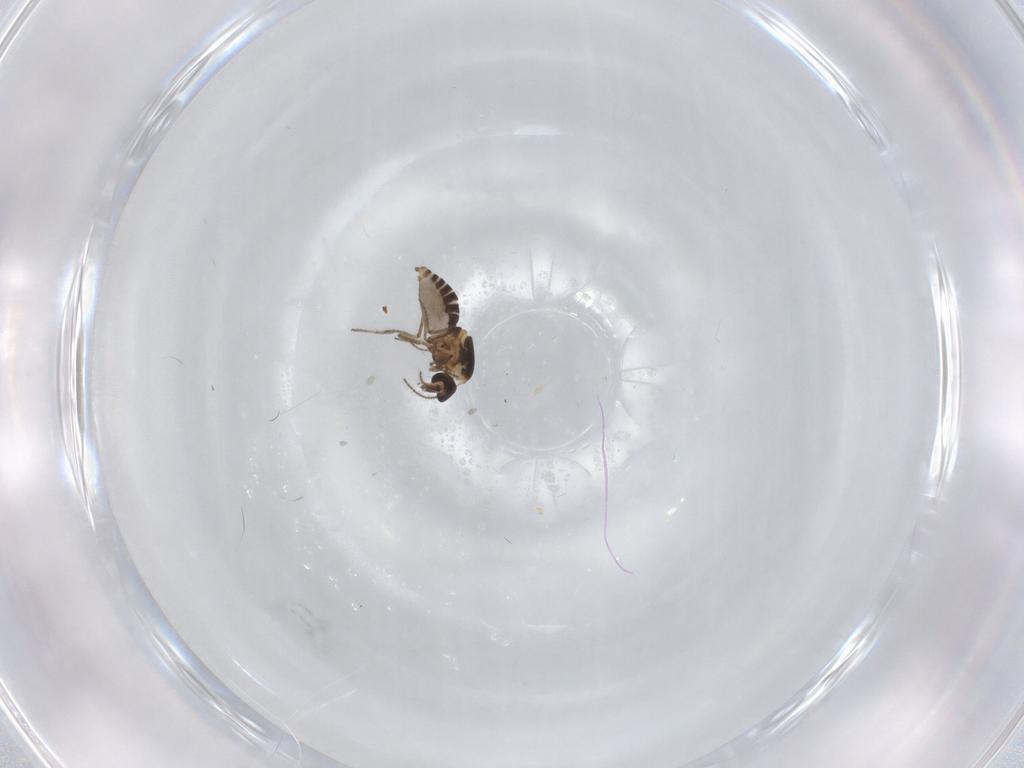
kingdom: Animalia
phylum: Arthropoda
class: Insecta
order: Diptera
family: Ceratopogonidae
